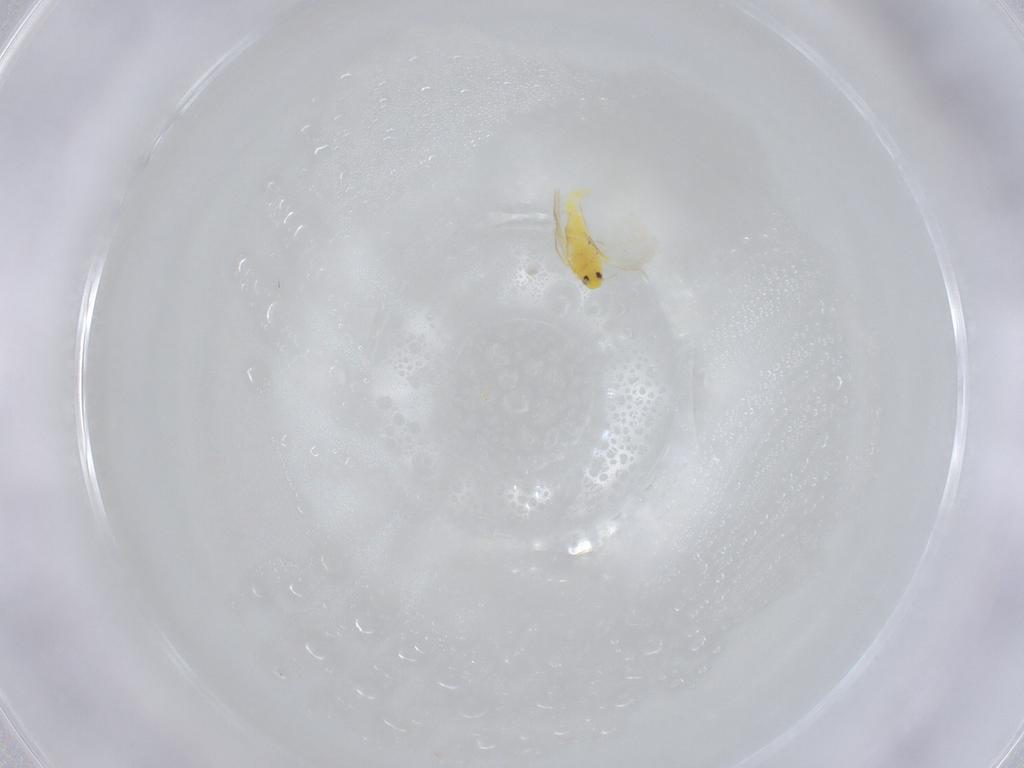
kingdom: Animalia
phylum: Arthropoda
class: Insecta
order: Hemiptera
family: Aleyrodidae
